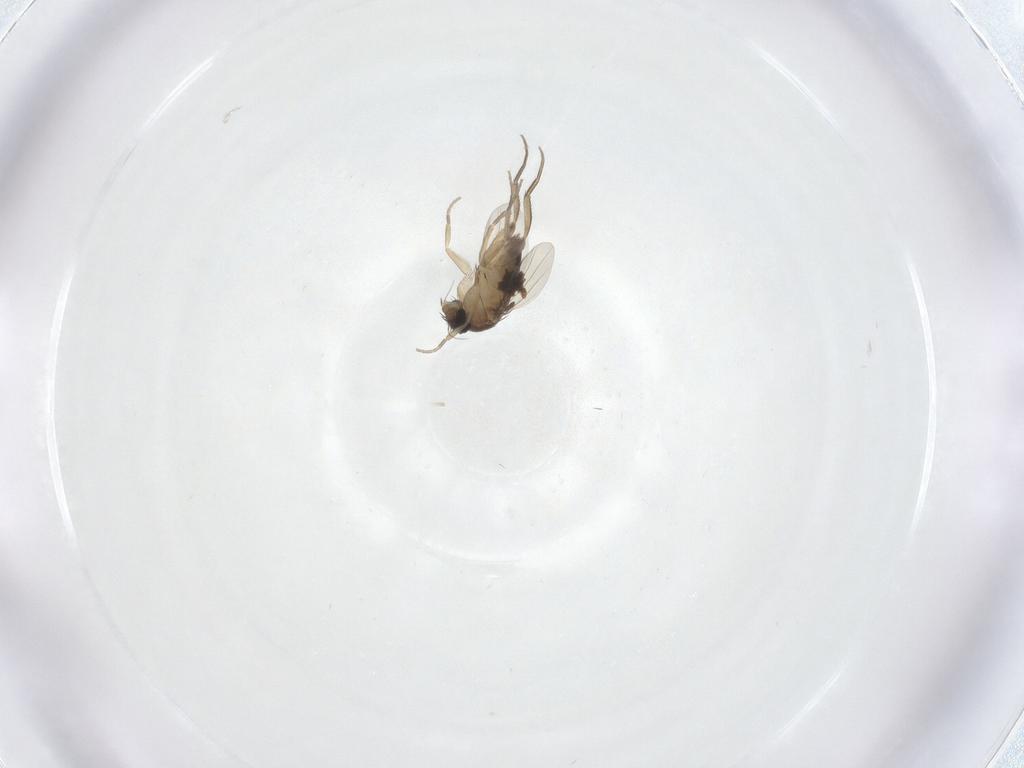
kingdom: Animalia
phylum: Arthropoda
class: Insecta
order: Diptera
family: Phoridae
